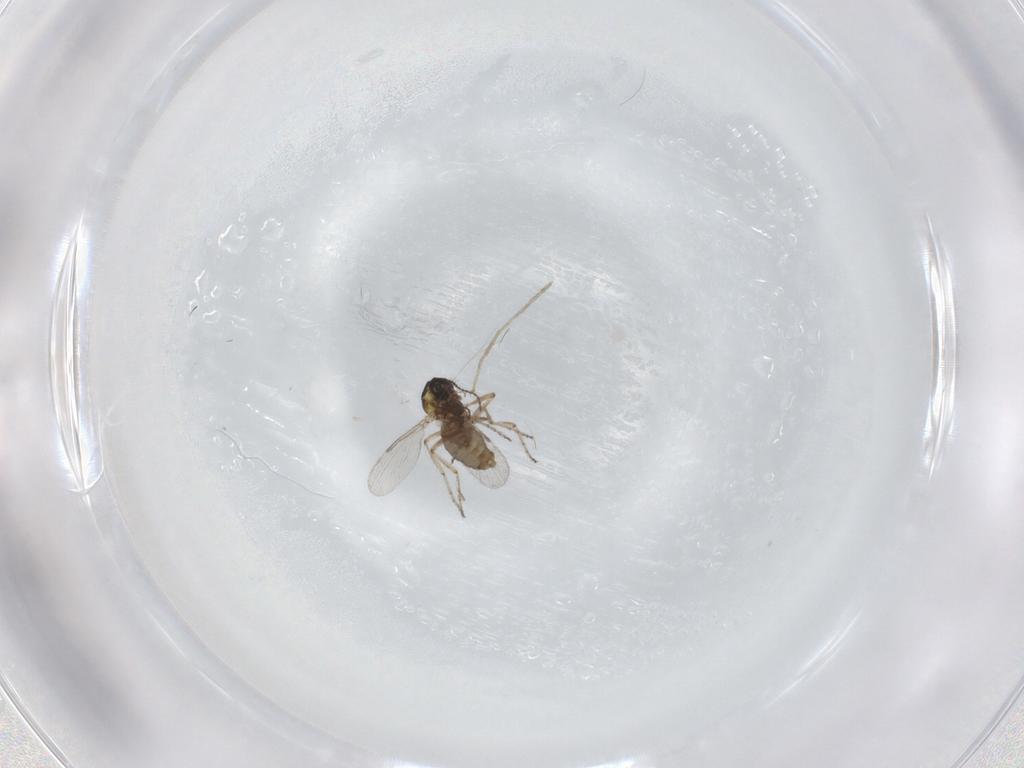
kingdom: Animalia
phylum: Arthropoda
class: Insecta
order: Diptera
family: Ceratopogonidae
